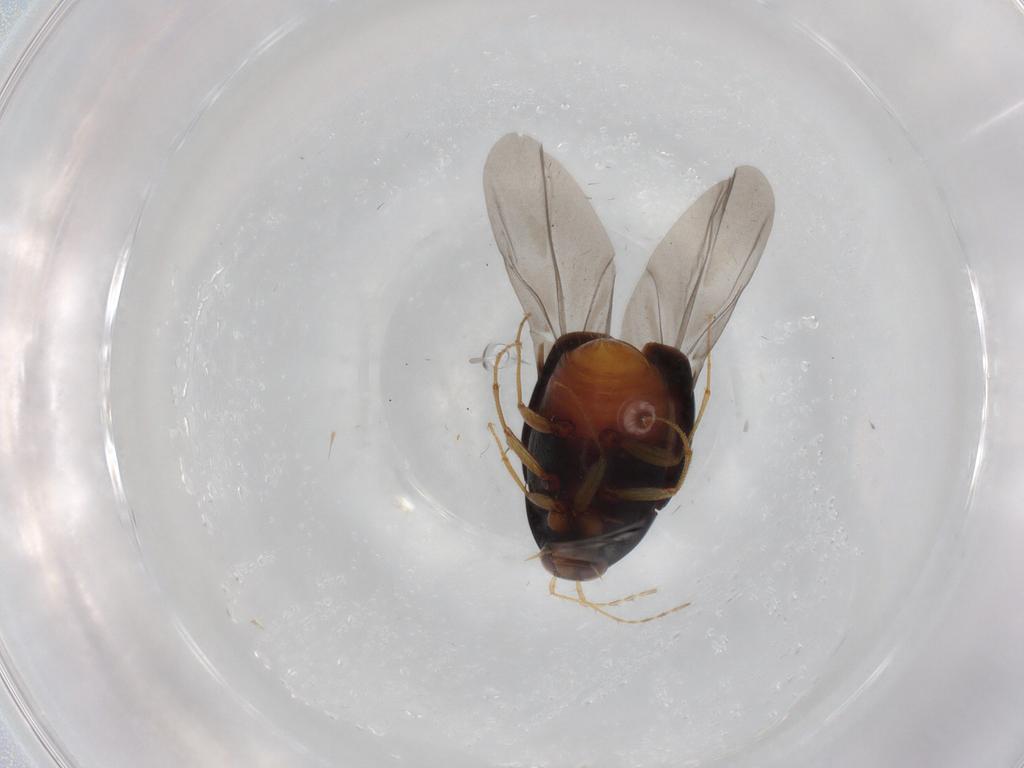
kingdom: Animalia
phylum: Arthropoda
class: Insecta
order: Coleoptera
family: Staphylinidae
